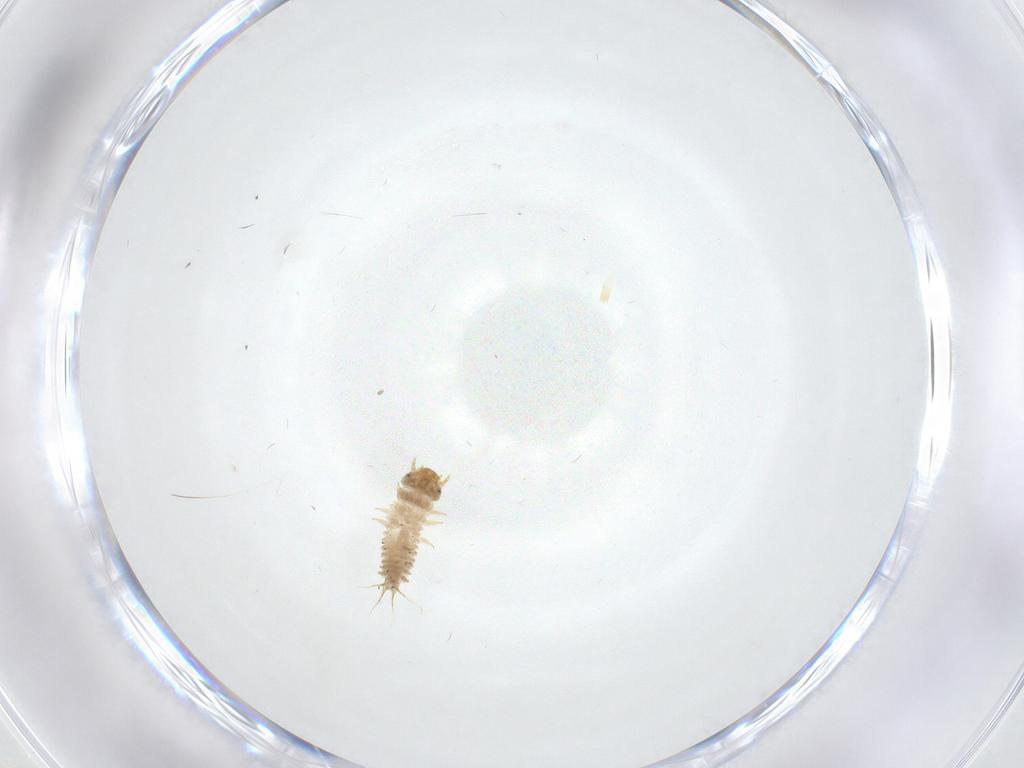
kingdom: Animalia
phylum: Arthropoda
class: Insecta
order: Coleoptera
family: Nitidulidae
